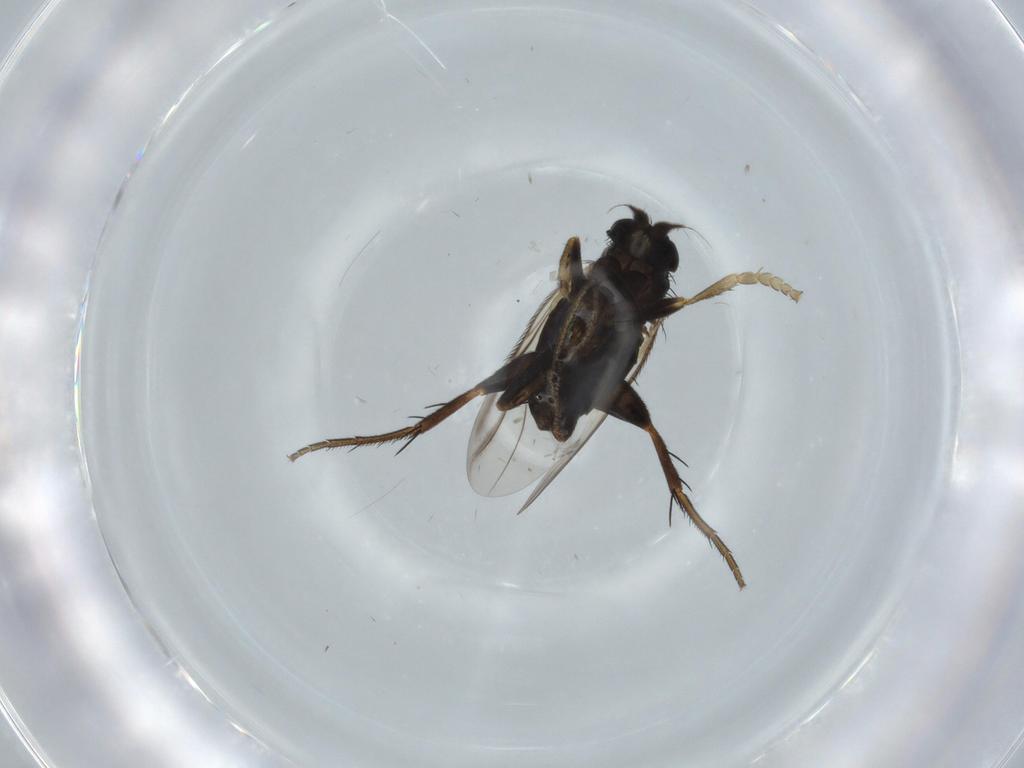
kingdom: Animalia
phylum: Arthropoda
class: Insecta
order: Diptera
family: Phoridae
